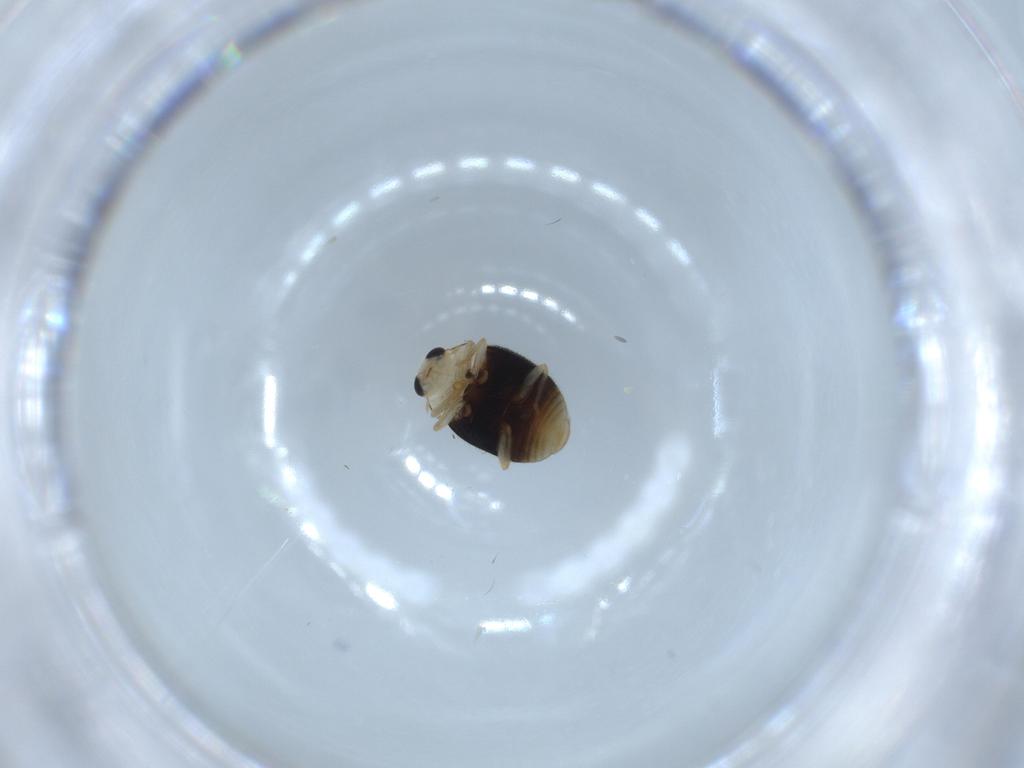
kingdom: Animalia
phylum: Arthropoda
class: Insecta
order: Coleoptera
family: Coccinellidae
